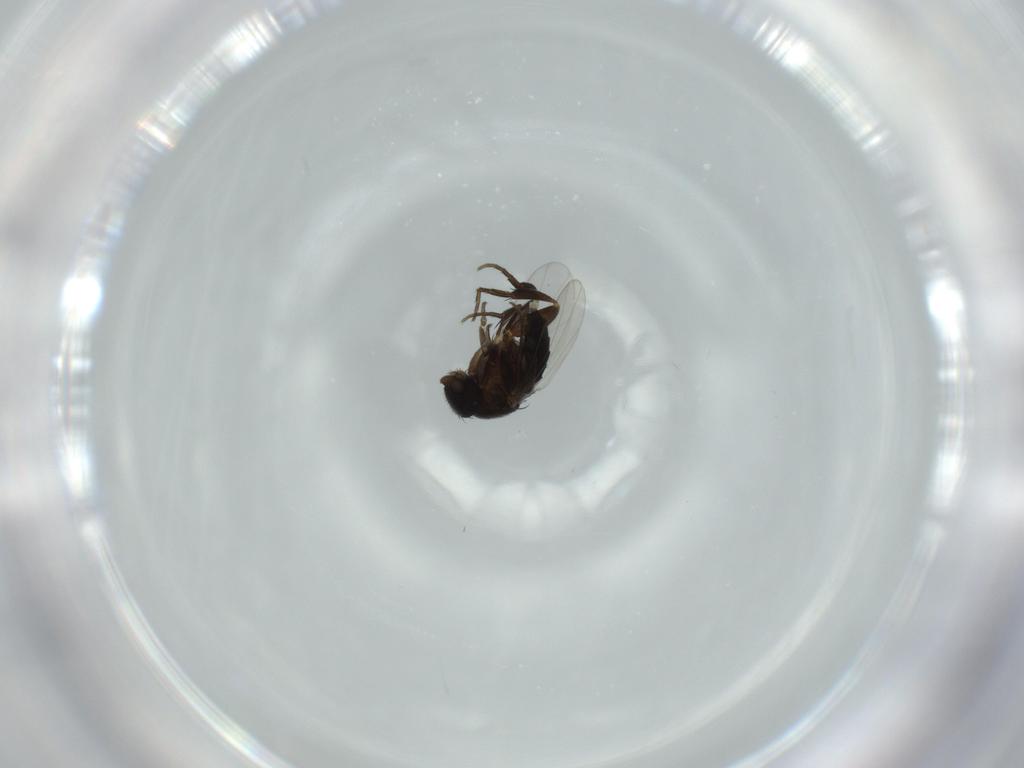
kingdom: Animalia
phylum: Arthropoda
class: Insecta
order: Diptera
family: Phoridae
